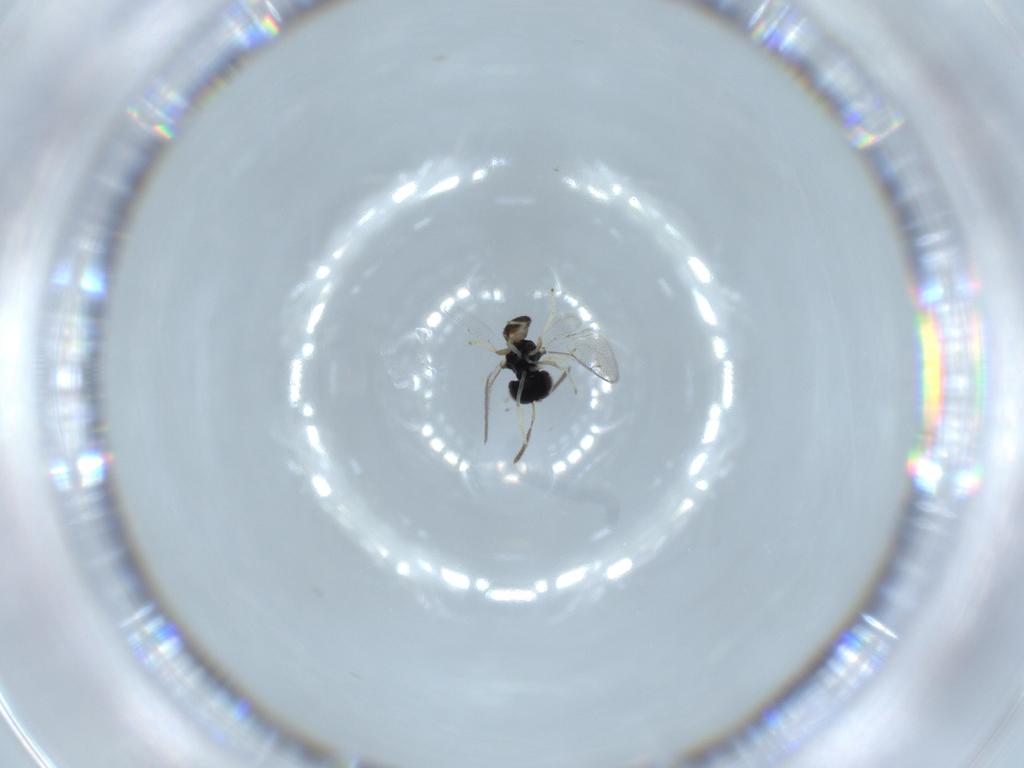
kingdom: Animalia
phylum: Arthropoda
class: Insecta
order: Hymenoptera
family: Pteromalidae
